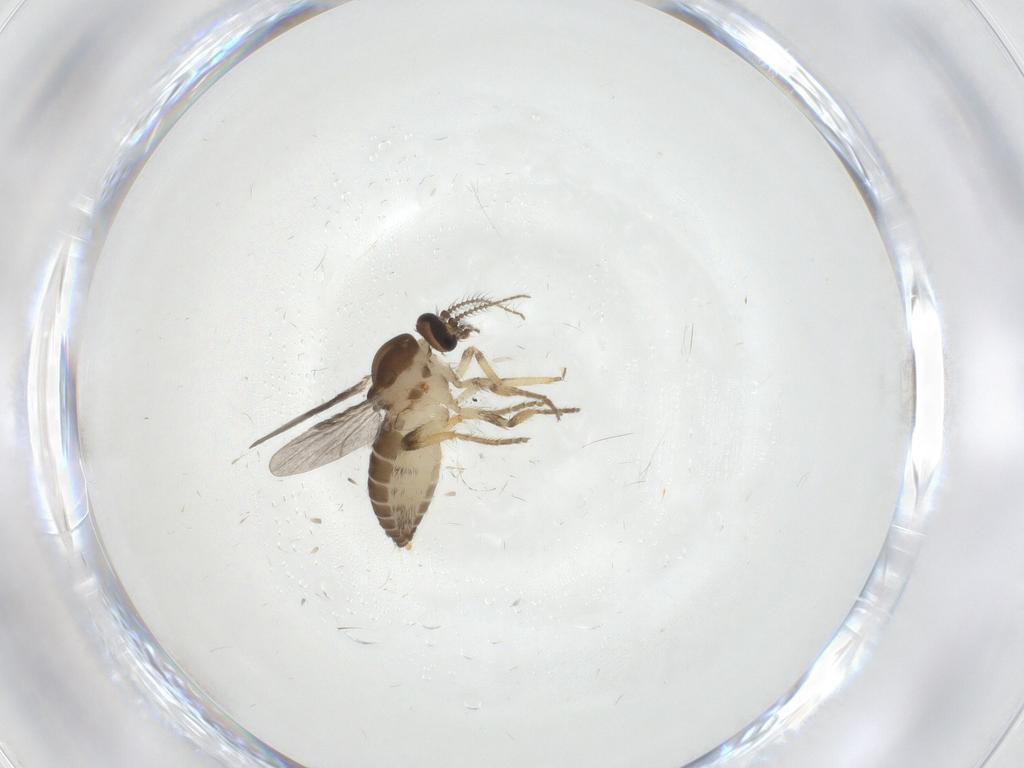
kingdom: Animalia
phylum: Arthropoda
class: Insecta
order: Diptera
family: Ceratopogonidae
